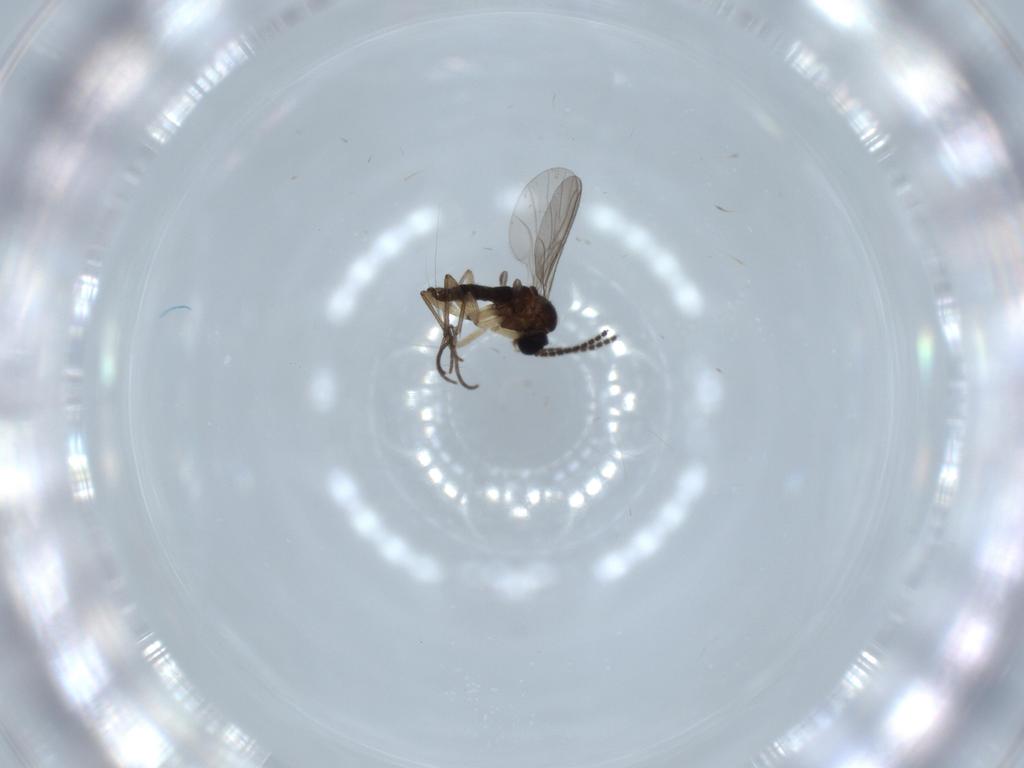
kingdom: Animalia
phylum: Arthropoda
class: Insecta
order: Diptera
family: Sciaridae
